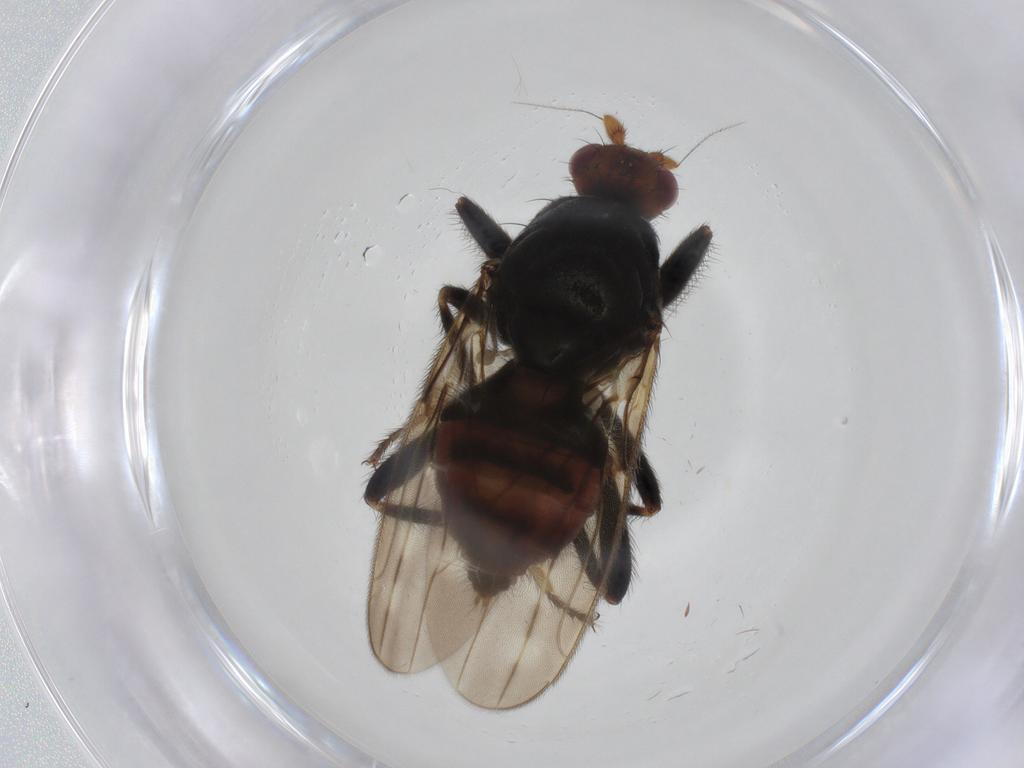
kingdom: Animalia
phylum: Arthropoda
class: Insecta
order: Diptera
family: Sphaeroceridae
